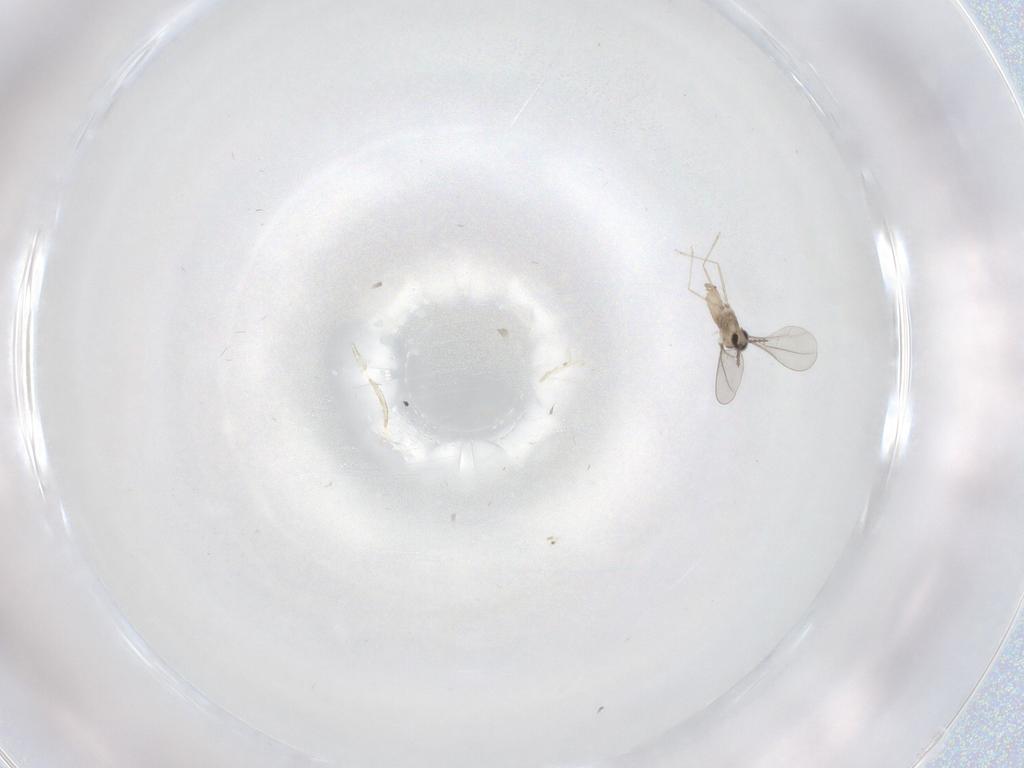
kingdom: Animalia
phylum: Arthropoda
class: Insecta
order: Diptera
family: Cecidomyiidae
